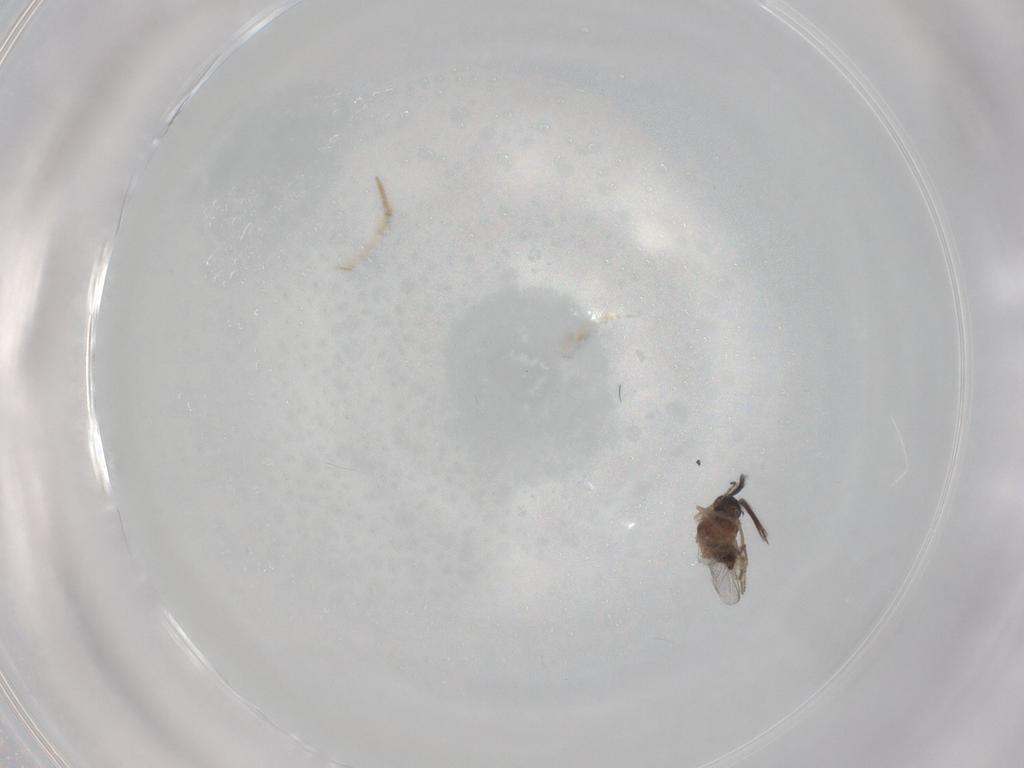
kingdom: Animalia
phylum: Arthropoda
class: Insecta
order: Diptera
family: Ceratopogonidae
